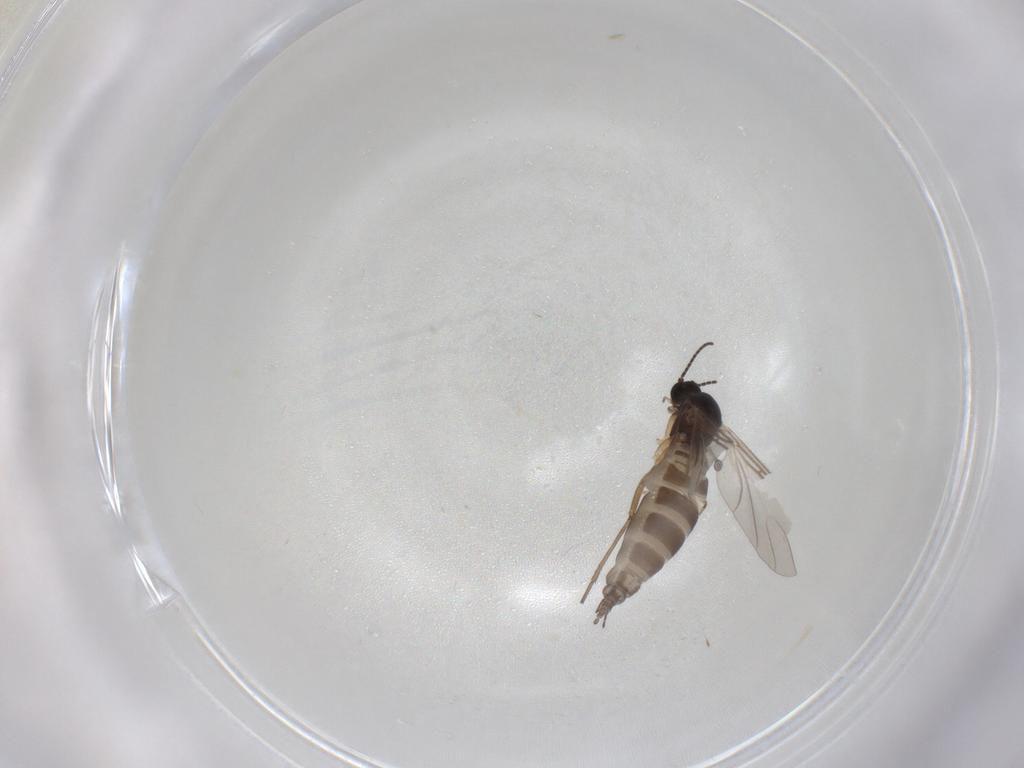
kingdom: Animalia
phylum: Arthropoda
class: Insecta
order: Diptera
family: Sciaridae
